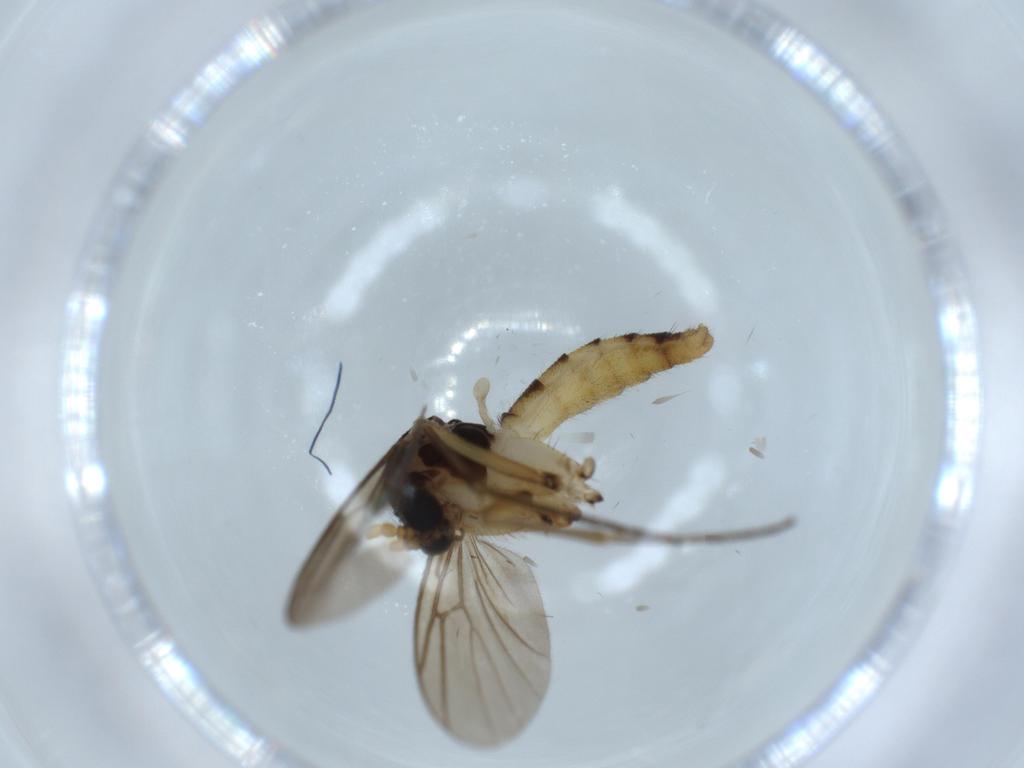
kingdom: Animalia
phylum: Arthropoda
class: Insecta
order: Diptera
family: Chironomidae
